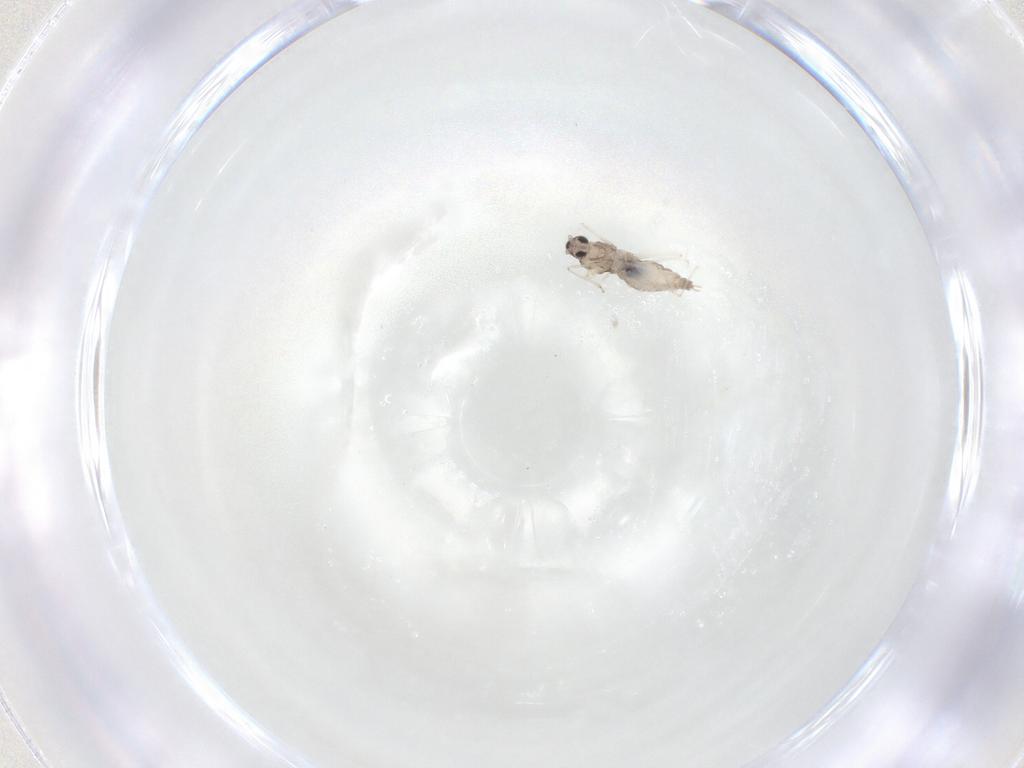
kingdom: Animalia
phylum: Arthropoda
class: Insecta
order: Diptera
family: Cecidomyiidae
